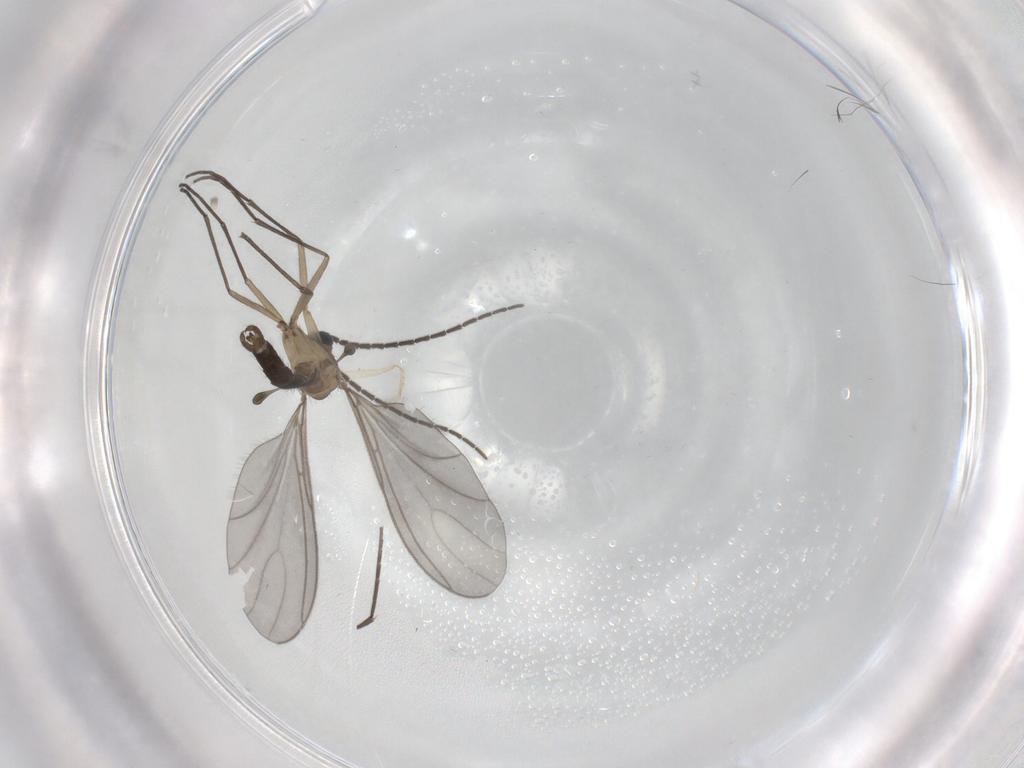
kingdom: Animalia
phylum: Arthropoda
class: Insecta
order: Diptera
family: Sciaridae
